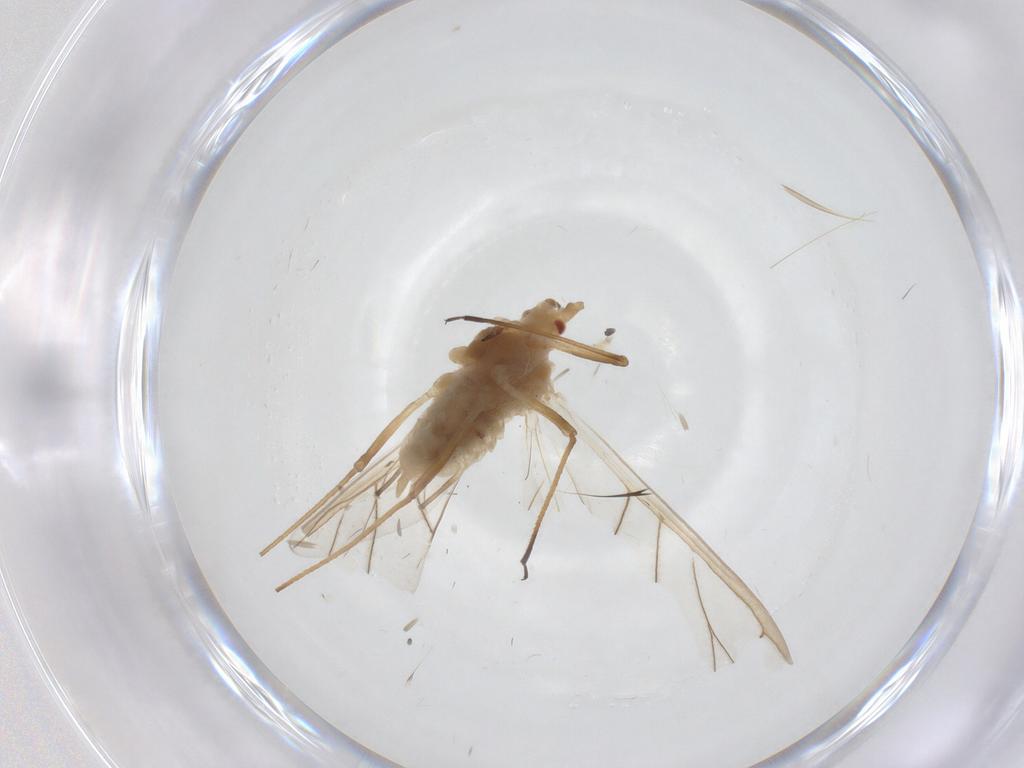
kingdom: Animalia
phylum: Arthropoda
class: Insecta
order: Hemiptera
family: Aphididae
